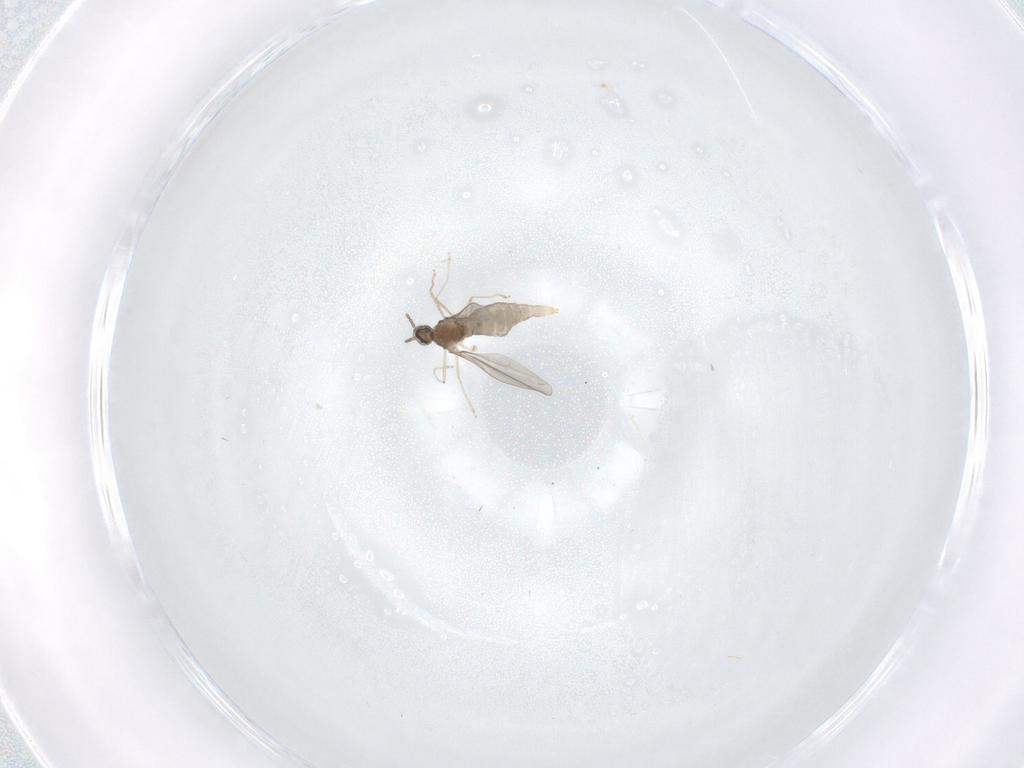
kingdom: Animalia
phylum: Arthropoda
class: Insecta
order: Diptera
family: Cecidomyiidae
